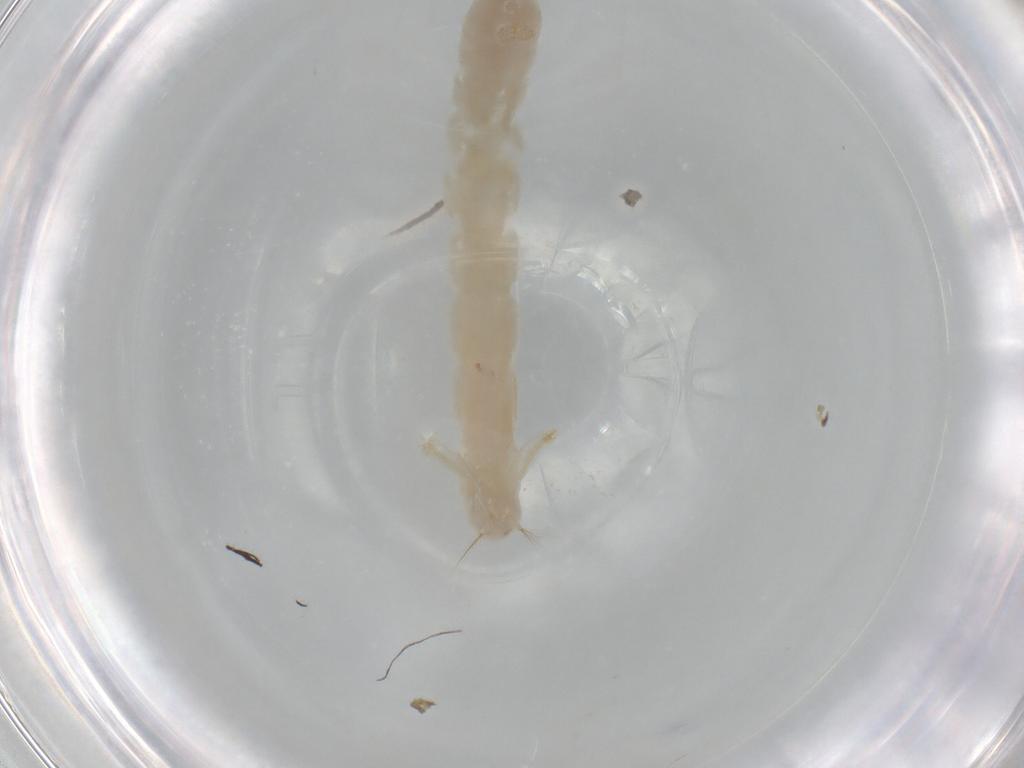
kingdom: Animalia
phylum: Arthropoda
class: Insecta
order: Diptera
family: Chironomidae
